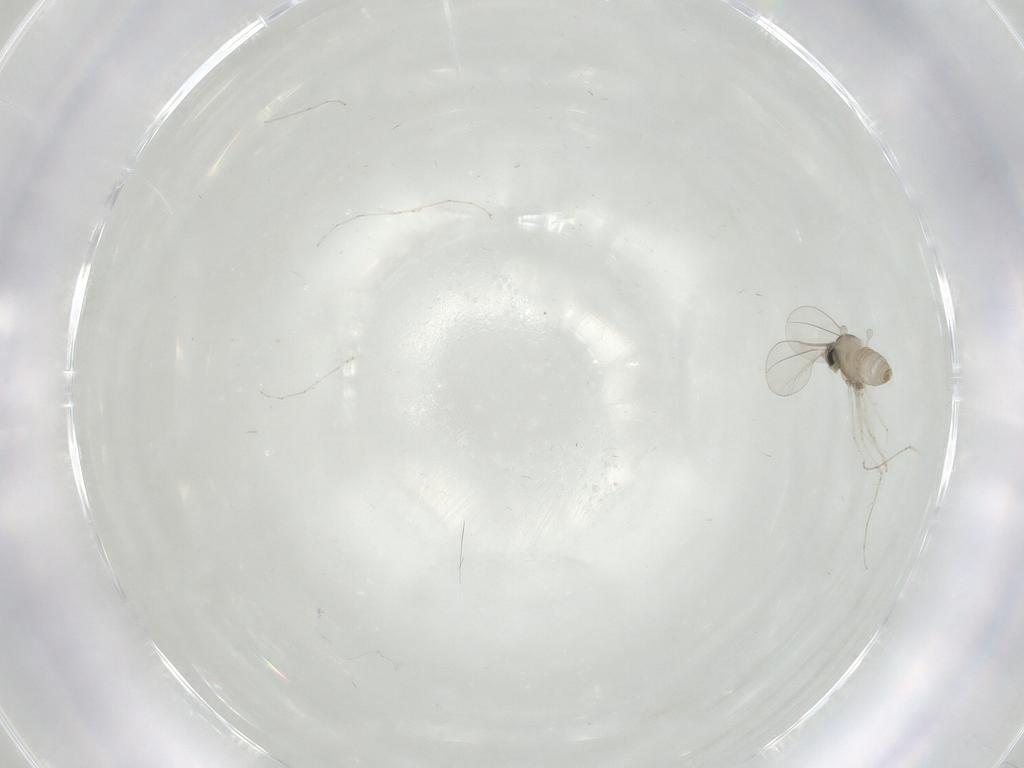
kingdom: Animalia
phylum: Arthropoda
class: Insecta
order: Diptera
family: Cecidomyiidae
